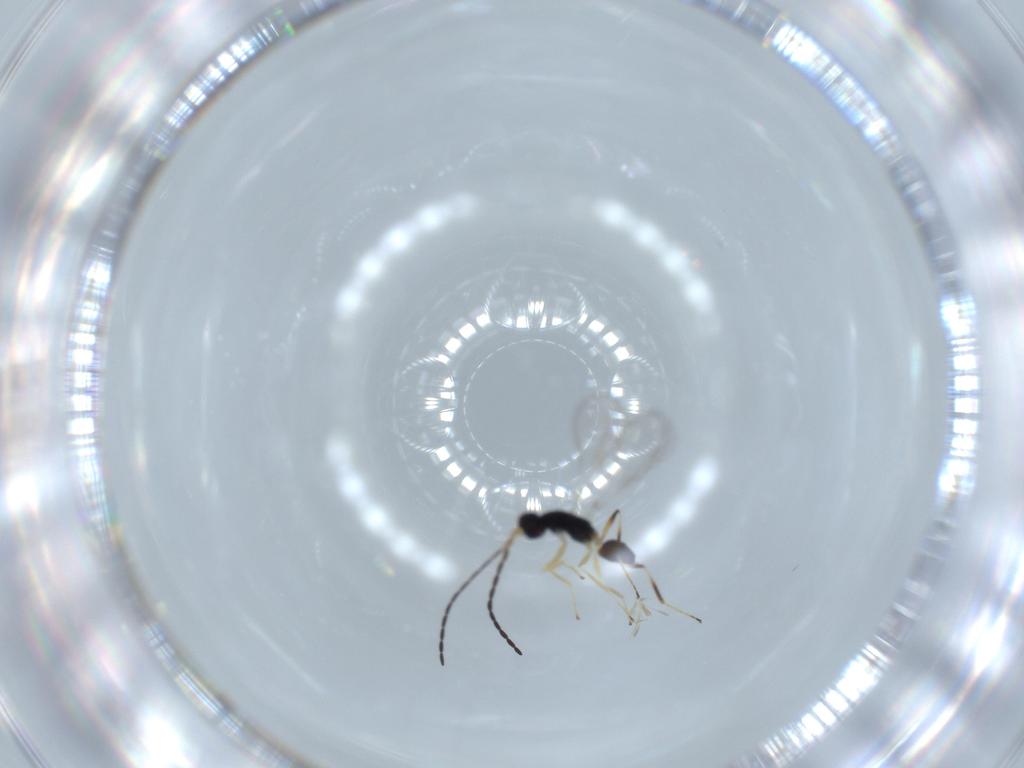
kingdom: Animalia
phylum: Arthropoda
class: Insecta
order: Hymenoptera
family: Mymaridae
